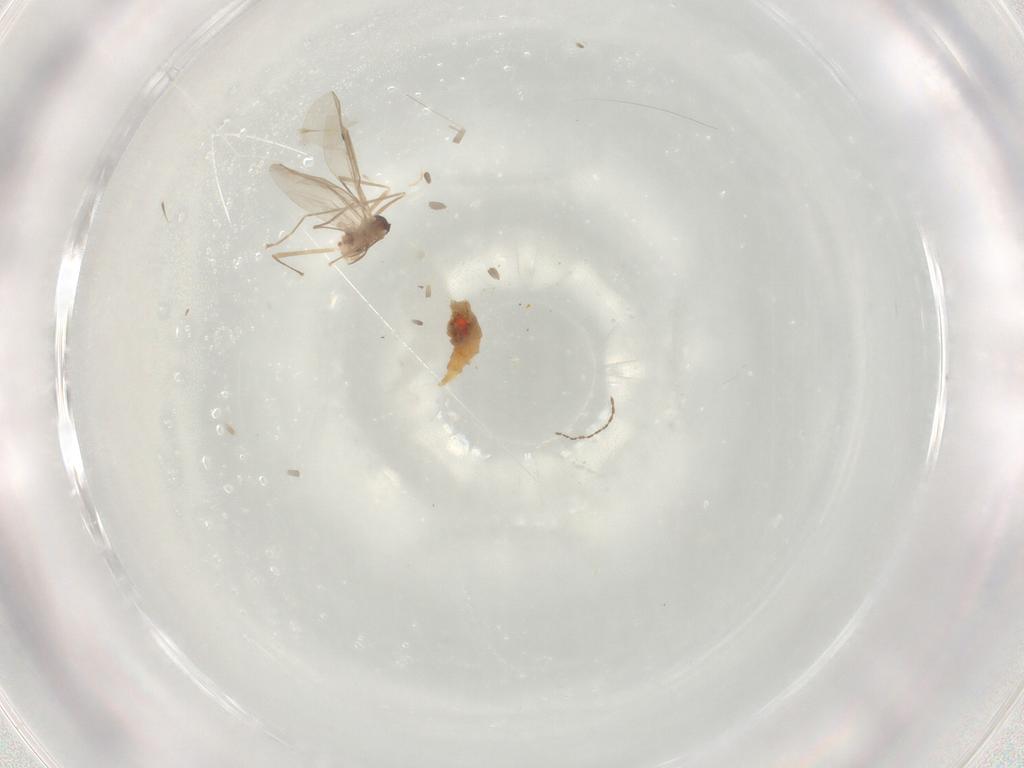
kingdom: Animalia
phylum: Arthropoda
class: Insecta
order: Diptera
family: Cecidomyiidae
